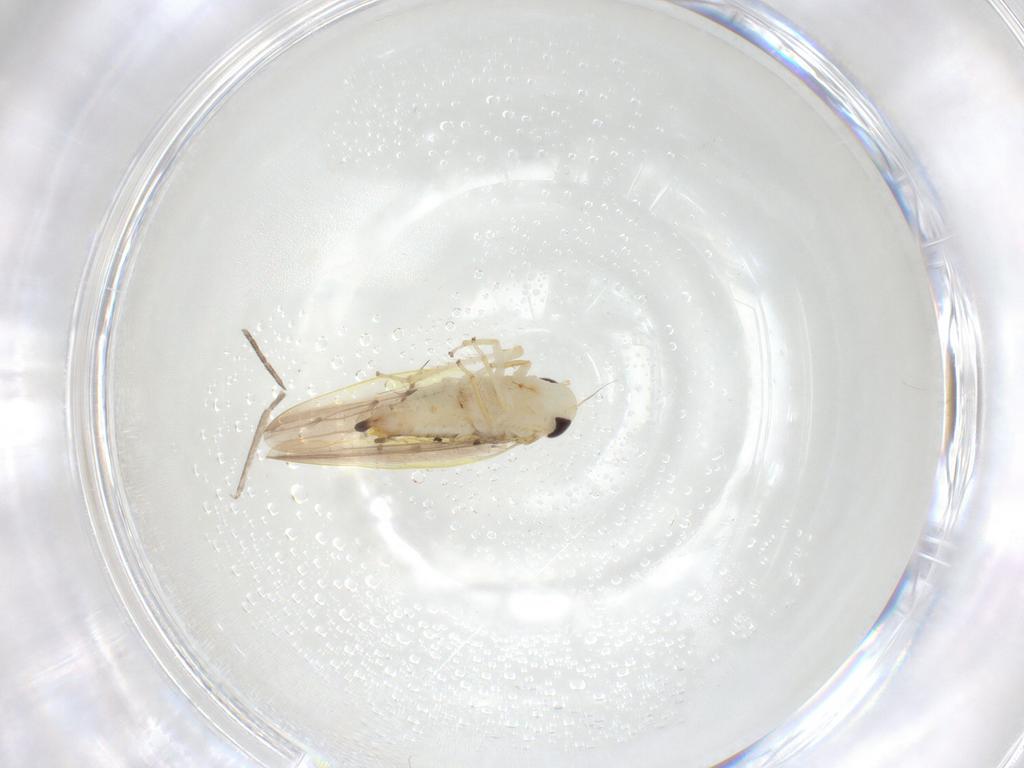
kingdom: Animalia
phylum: Arthropoda
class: Insecta
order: Hemiptera
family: Cicadellidae
